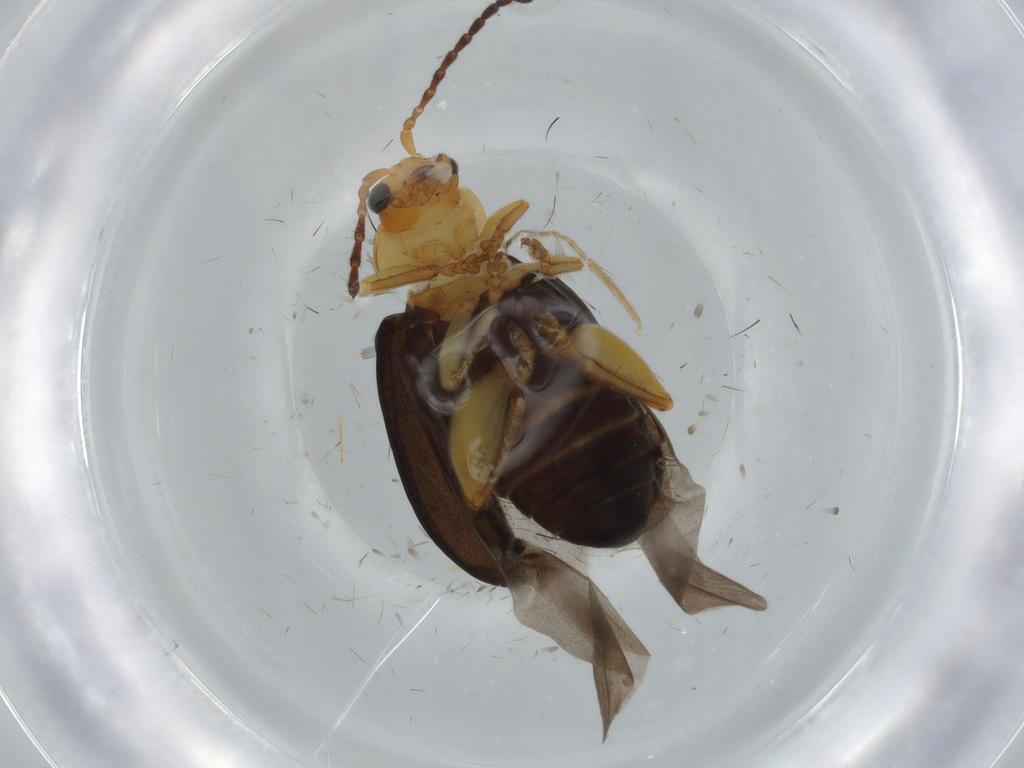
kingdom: Animalia
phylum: Arthropoda
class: Insecta
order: Coleoptera
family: Chrysomelidae
